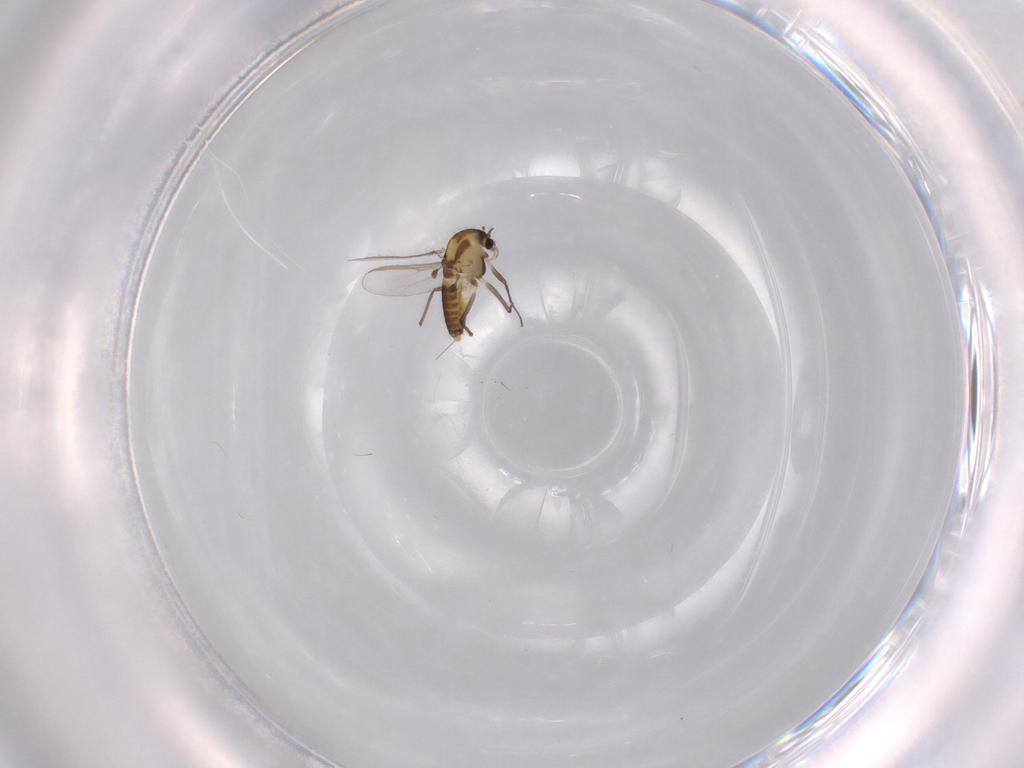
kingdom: Animalia
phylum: Arthropoda
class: Insecta
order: Diptera
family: Chironomidae
